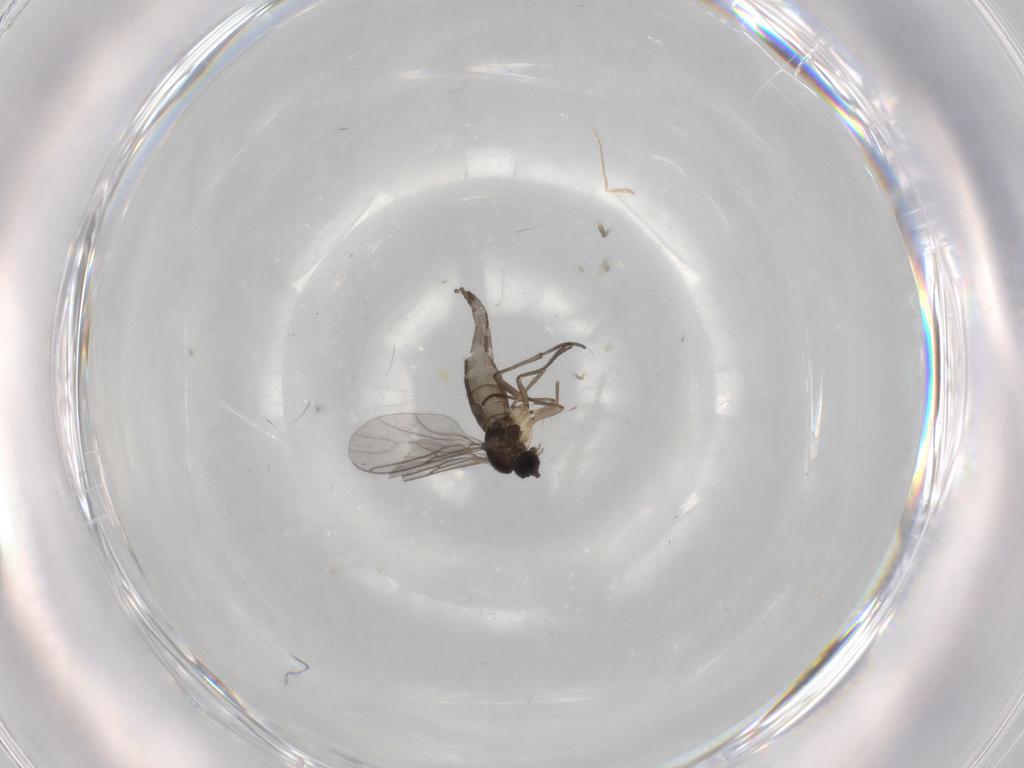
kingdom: Animalia
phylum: Arthropoda
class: Insecta
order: Diptera
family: Sciaridae
